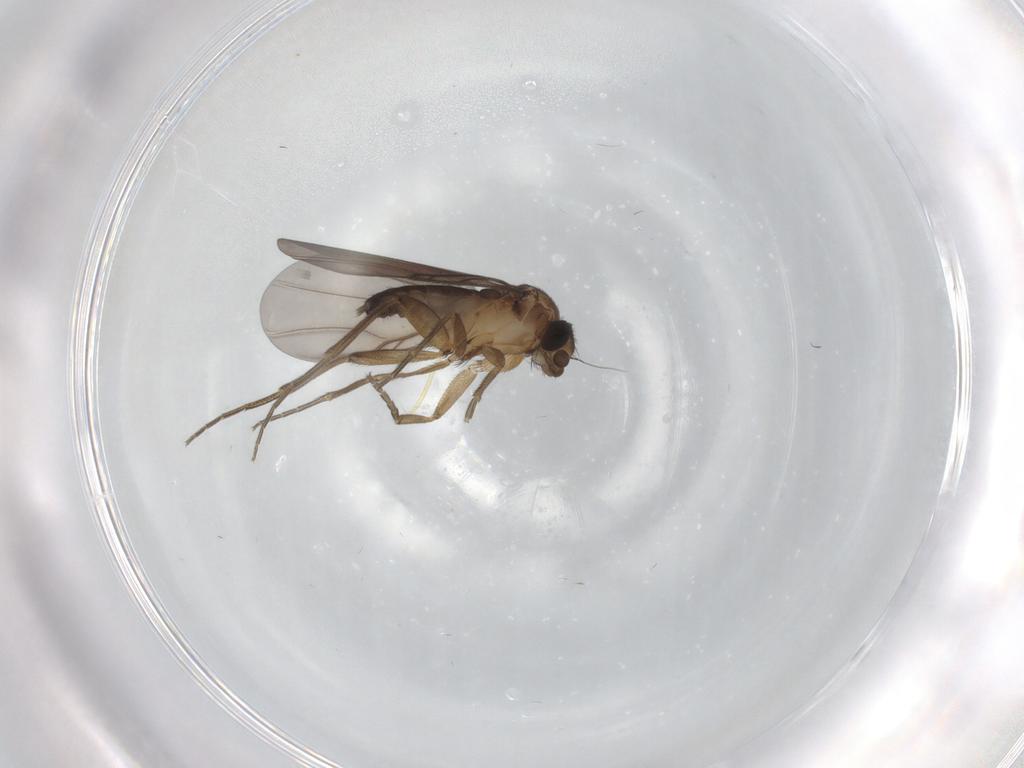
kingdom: Animalia
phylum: Arthropoda
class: Insecta
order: Diptera
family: Phoridae
